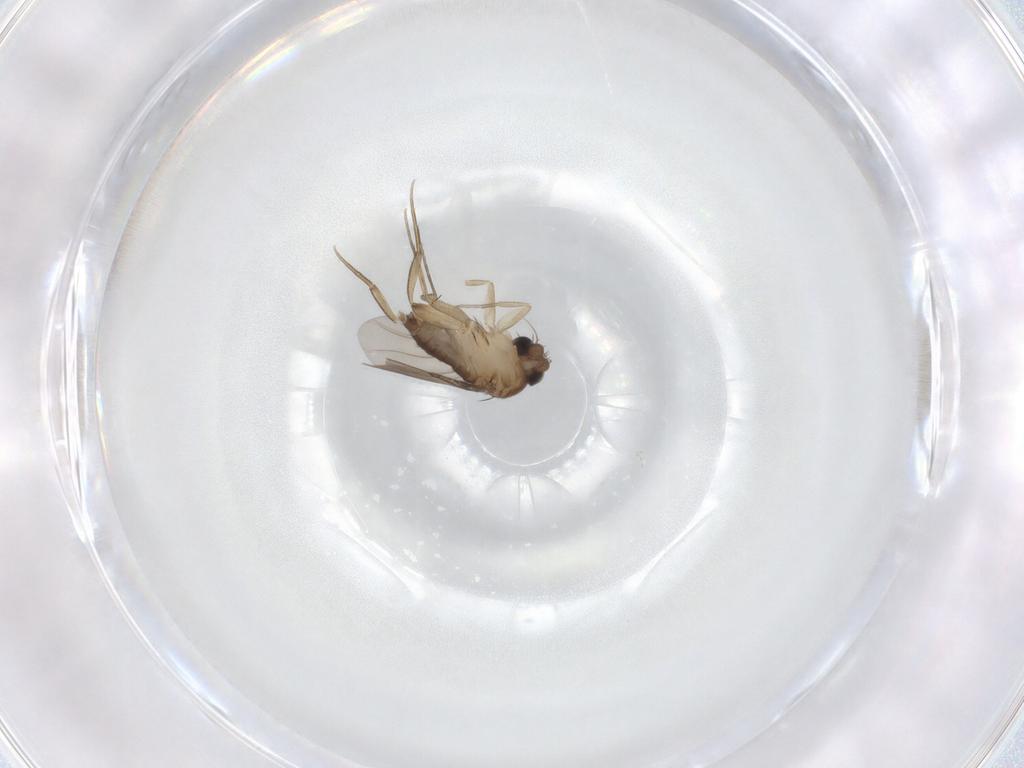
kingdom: Animalia
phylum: Arthropoda
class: Insecta
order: Diptera
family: Phoridae
